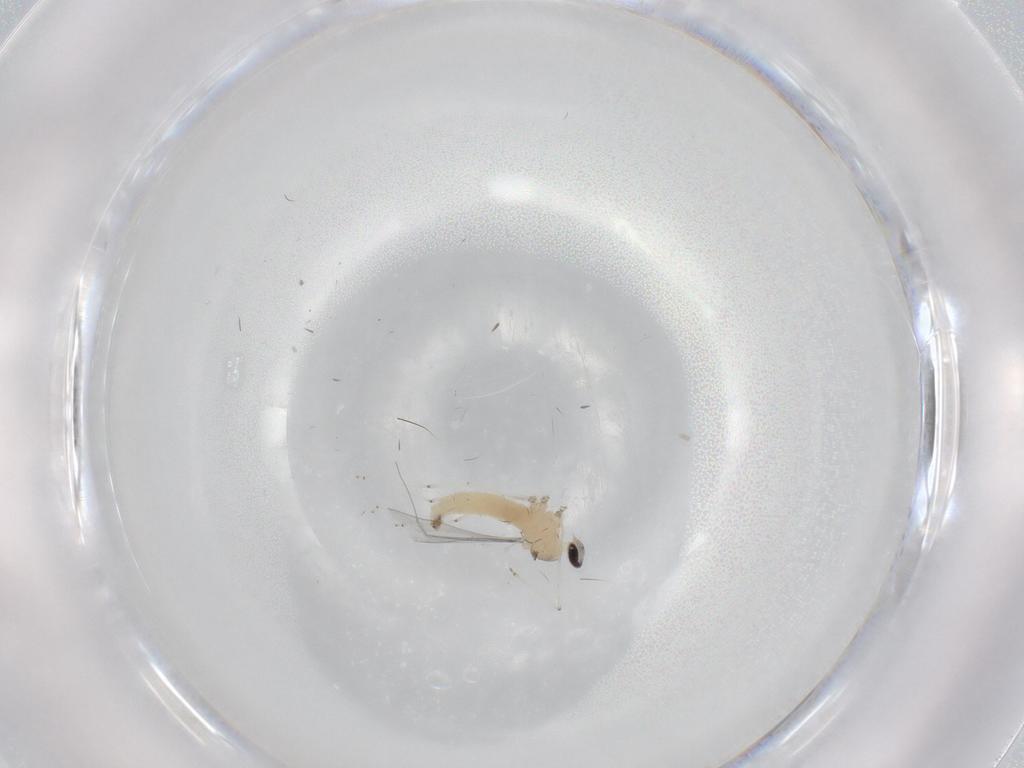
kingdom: Animalia
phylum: Arthropoda
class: Insecta
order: Diptera
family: Cecidomyiidae
